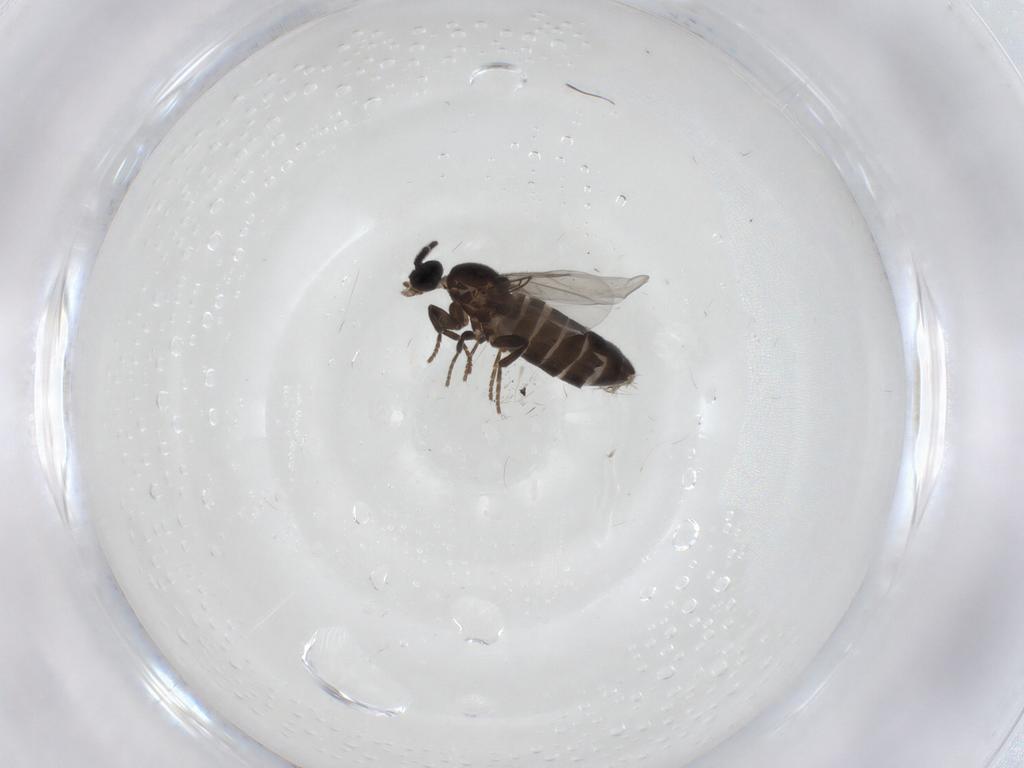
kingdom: Animalia
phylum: Arthropoda
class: Insecta
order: Diptera
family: Scatopsidae
